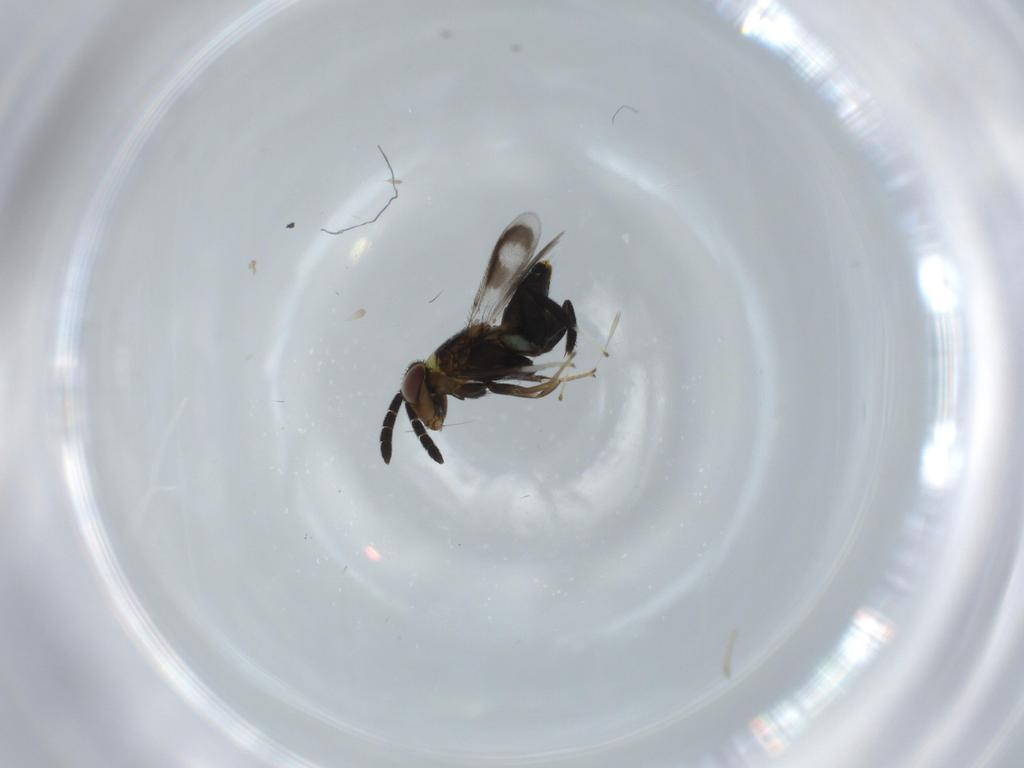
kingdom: Animalia
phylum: Arthropoda
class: Insecta
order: Hymenoptera
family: Aphelinidae
